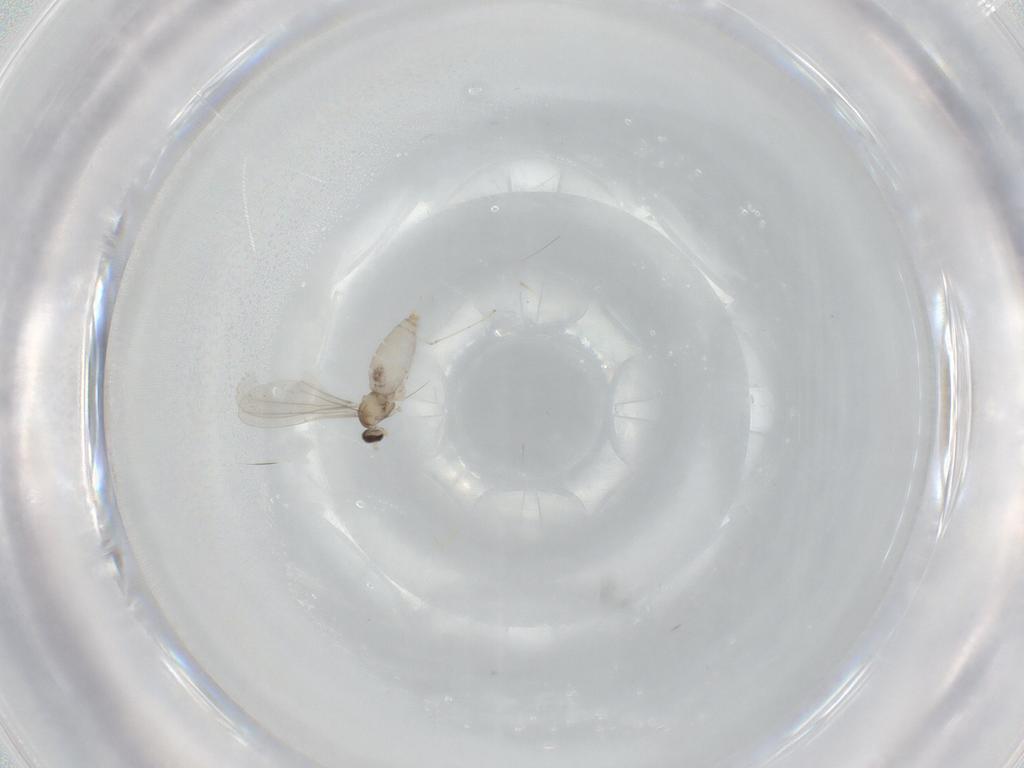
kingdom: Animalia
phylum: Arthropoda
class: Insecta
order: Diptera
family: Cecidomyiidae
